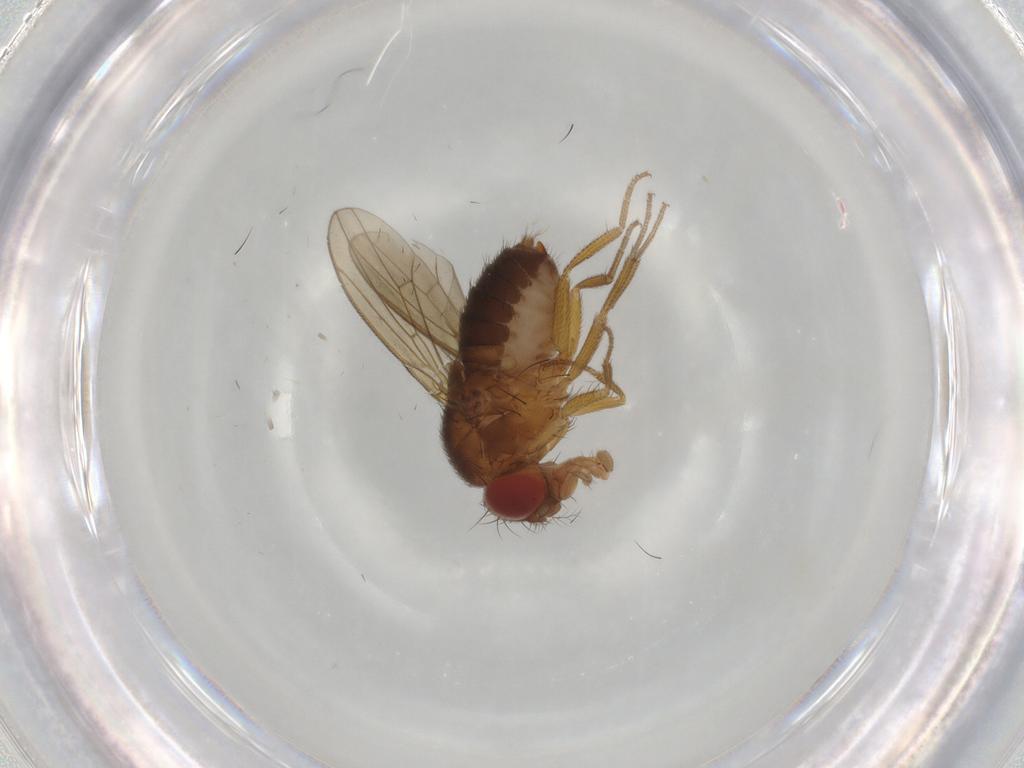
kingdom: Animalia
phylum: Arthropoda
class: Insecta
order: Diptera
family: Drosophilidae
